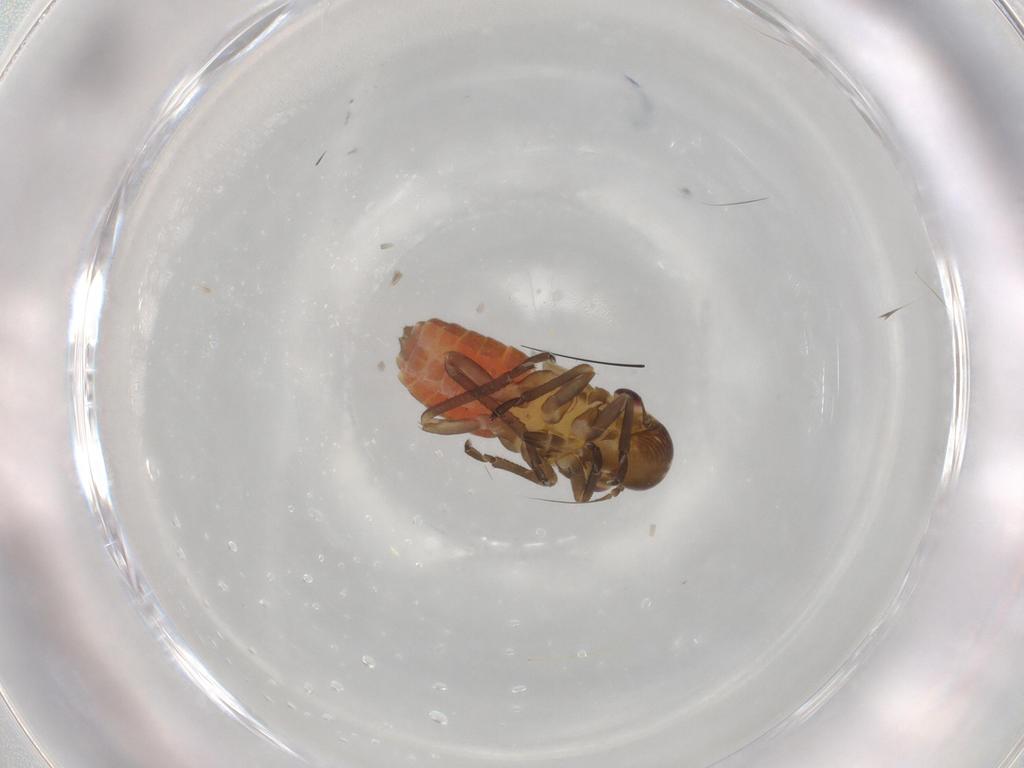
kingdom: Animalia
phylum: Arthropoda
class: Insecta
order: Hemiptera
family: Cicadellidae
